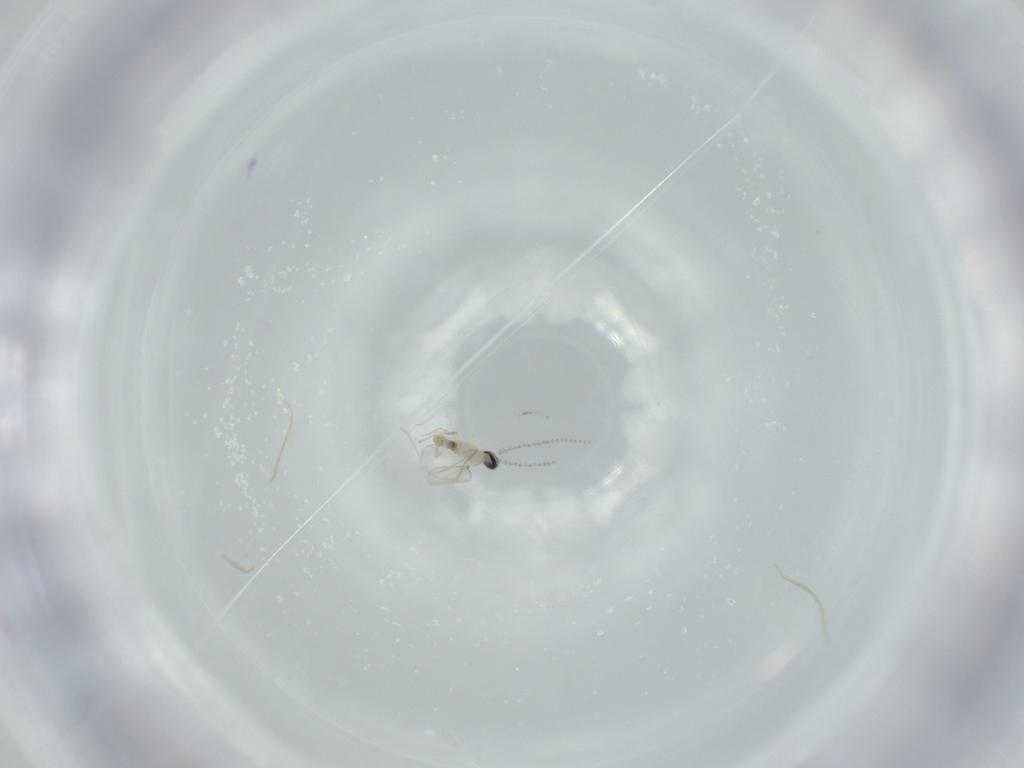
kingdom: Animalia
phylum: Arthropoda
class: Insecta
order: Diptera
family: Cecidomyiidae
